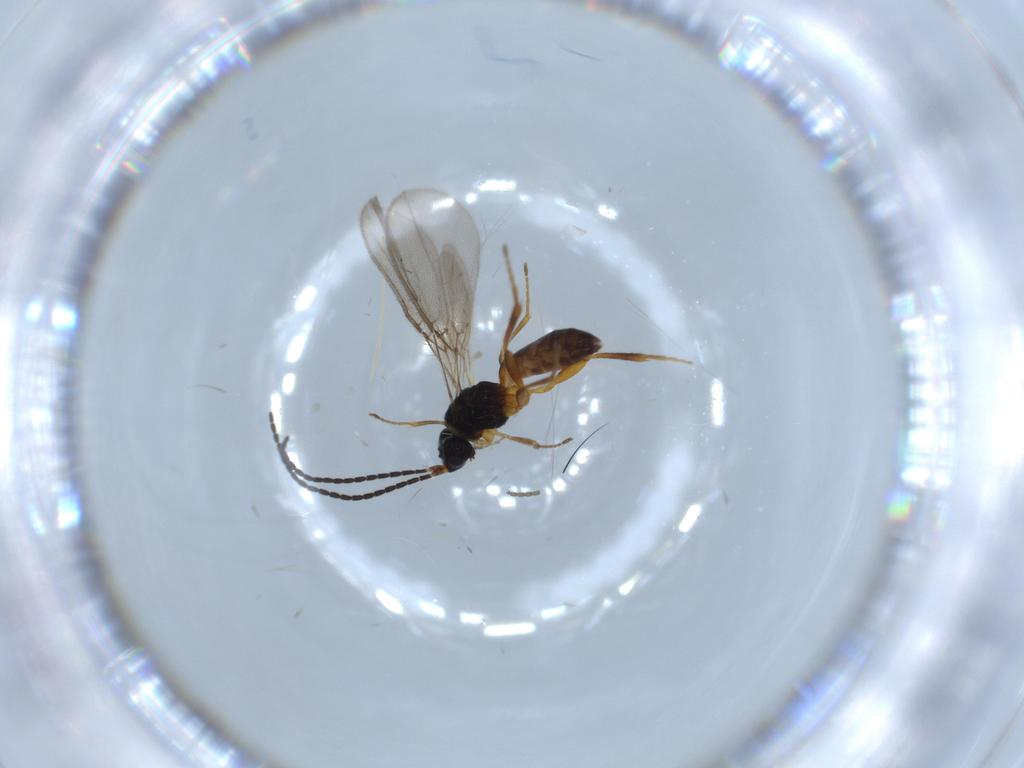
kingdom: Animalia
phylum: Arthropoda
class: Insecta
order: Hymenoptera
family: Braconidae
